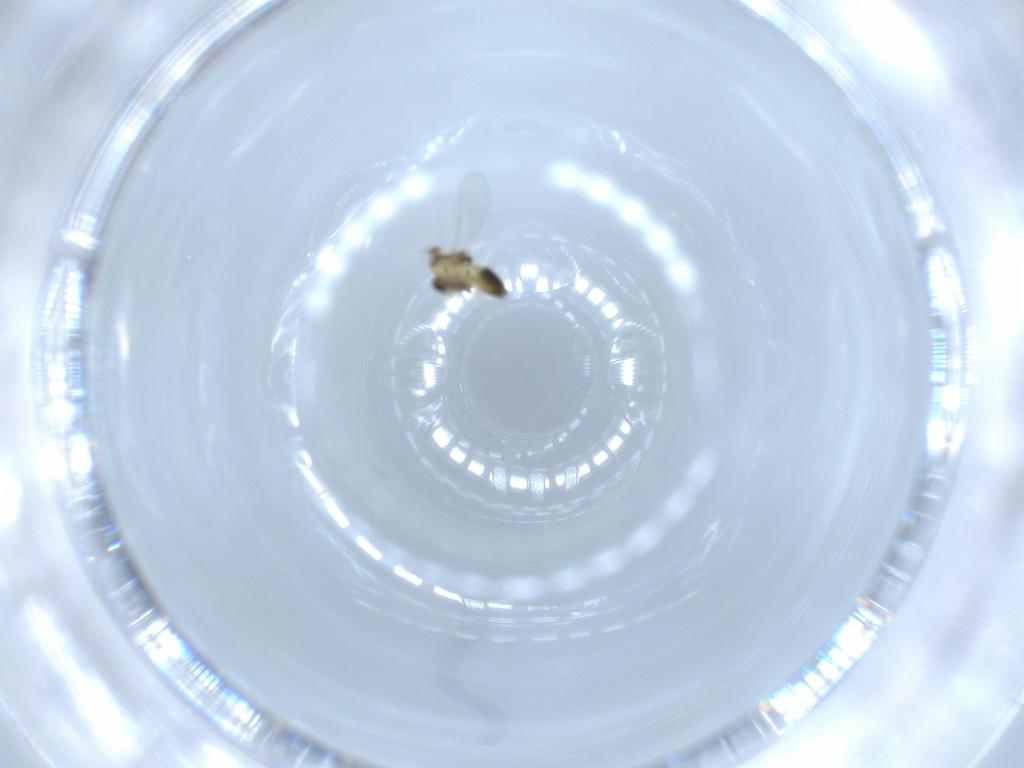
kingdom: Animalia
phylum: Arthropoda
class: Insecta
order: Diptera
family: Chironomidae
